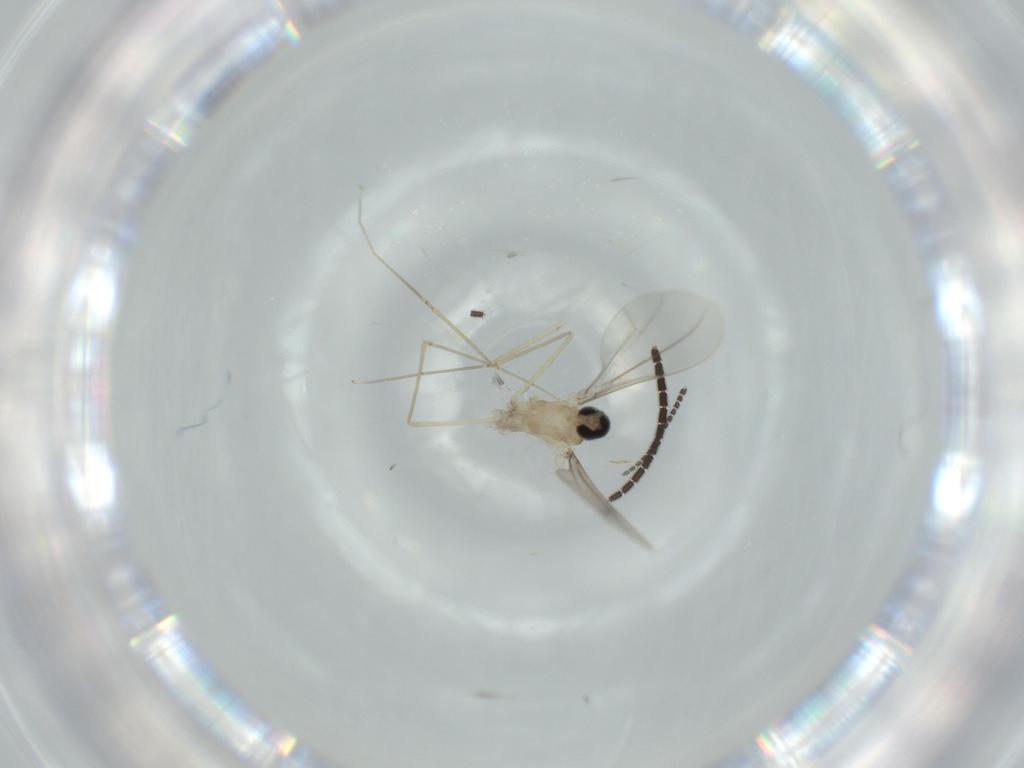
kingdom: Animalia
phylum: Arthropoda
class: Insecta
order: Diptera
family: Cecidomyiidae
